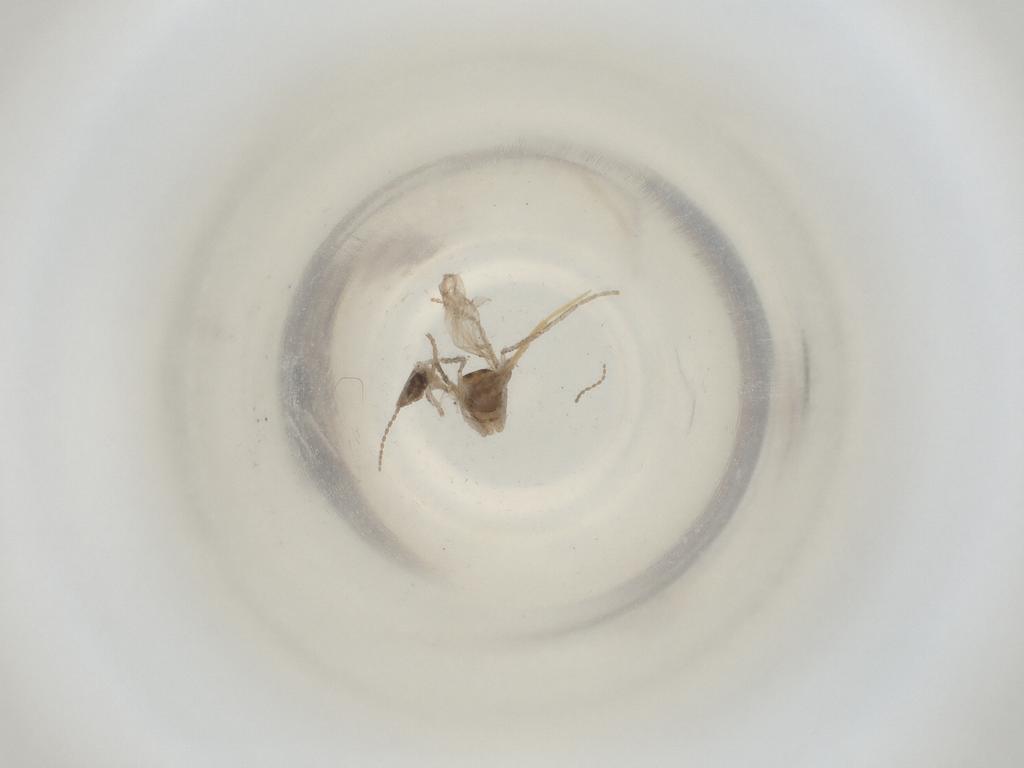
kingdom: Animalia
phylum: Arthropoda
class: Insecta
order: Diptera
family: Cecidomyiidae
